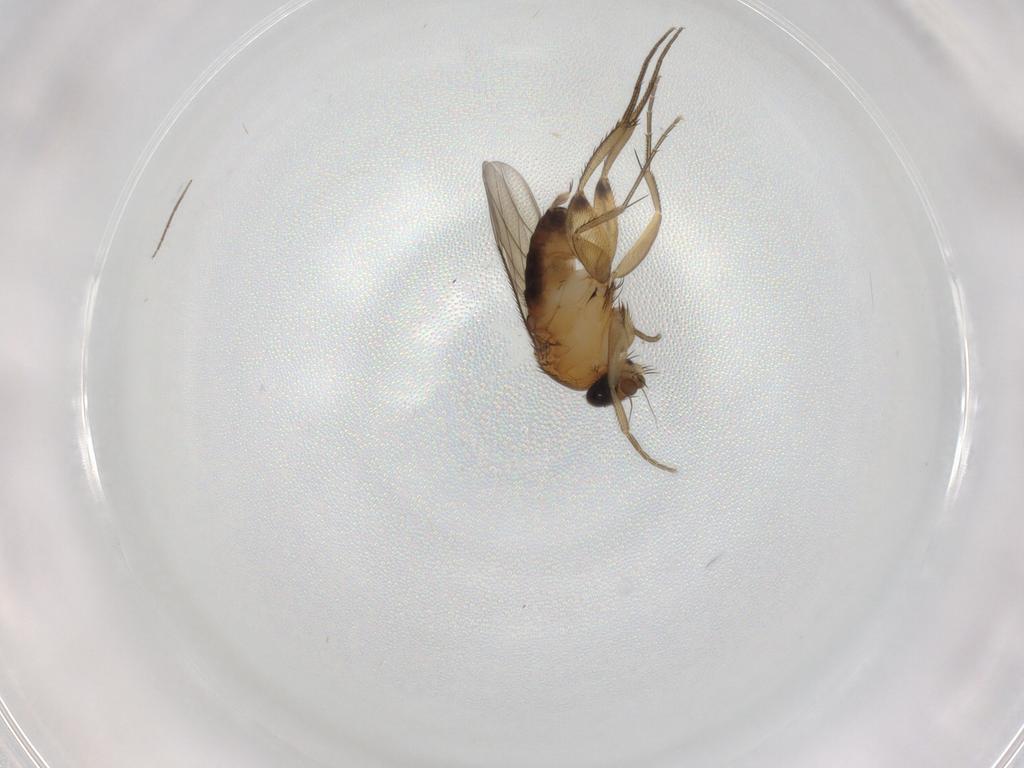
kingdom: Animalia
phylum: Arthropoda
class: Insecta
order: Diptera
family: Phoridae
